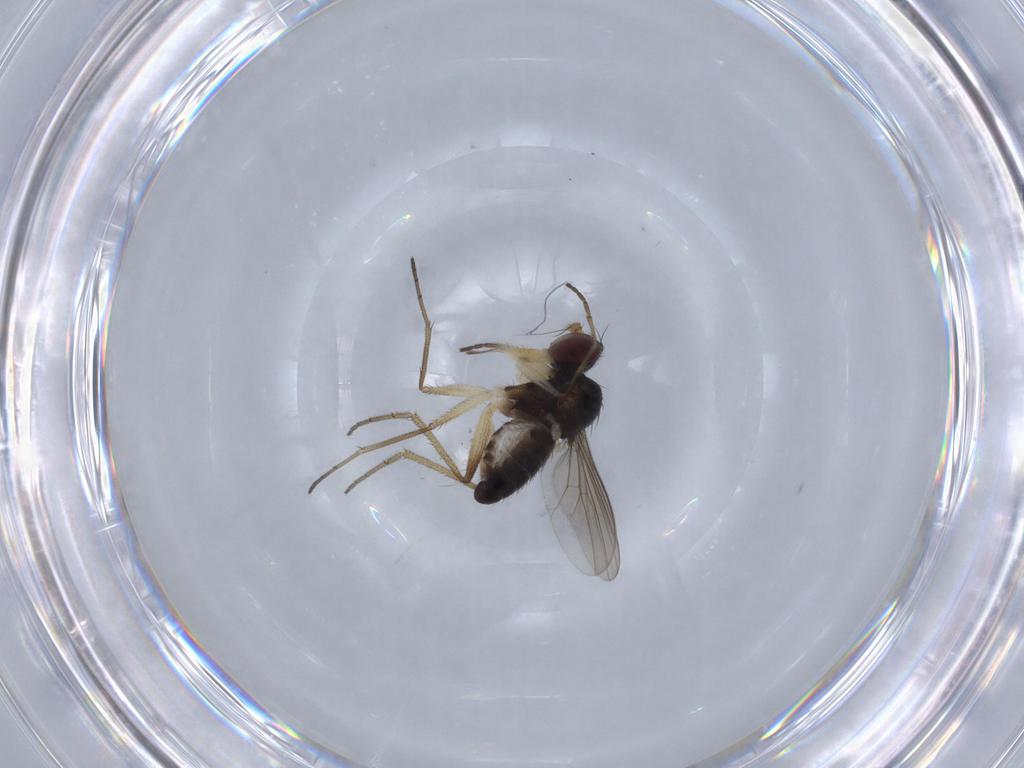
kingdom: Animalia
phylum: Arthropoda
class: Insecta
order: Diptera
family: Dolichopodidae
